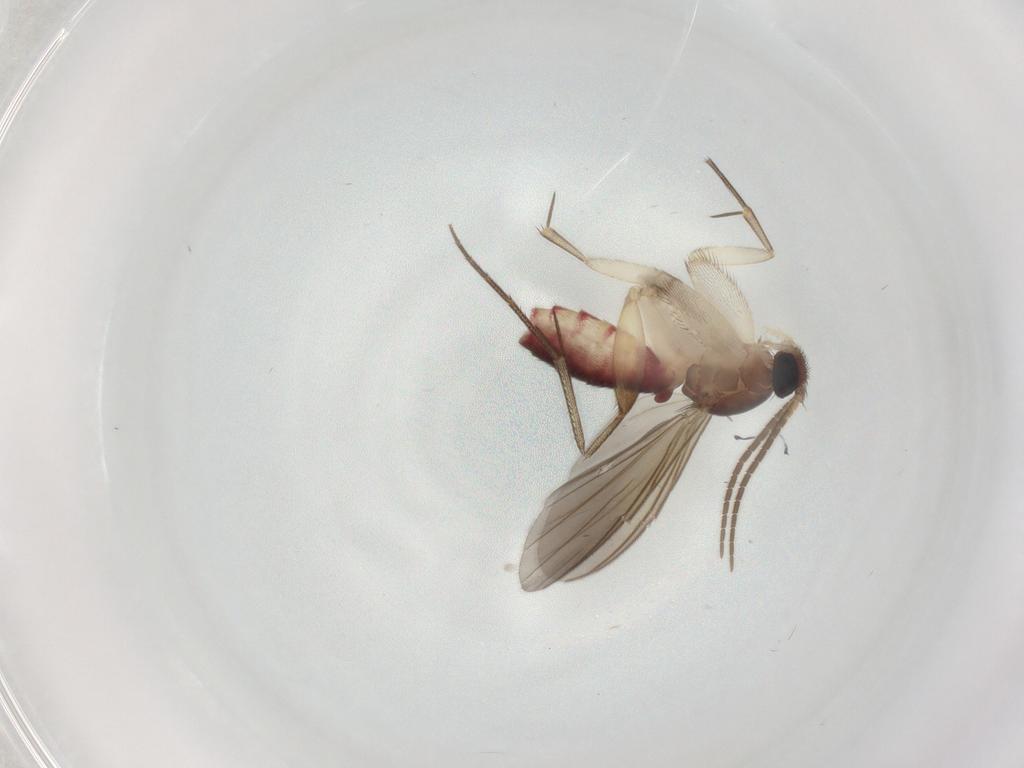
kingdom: Animalia
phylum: Arthropoda
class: Insecta
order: Diptera
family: Mycetophilidae
